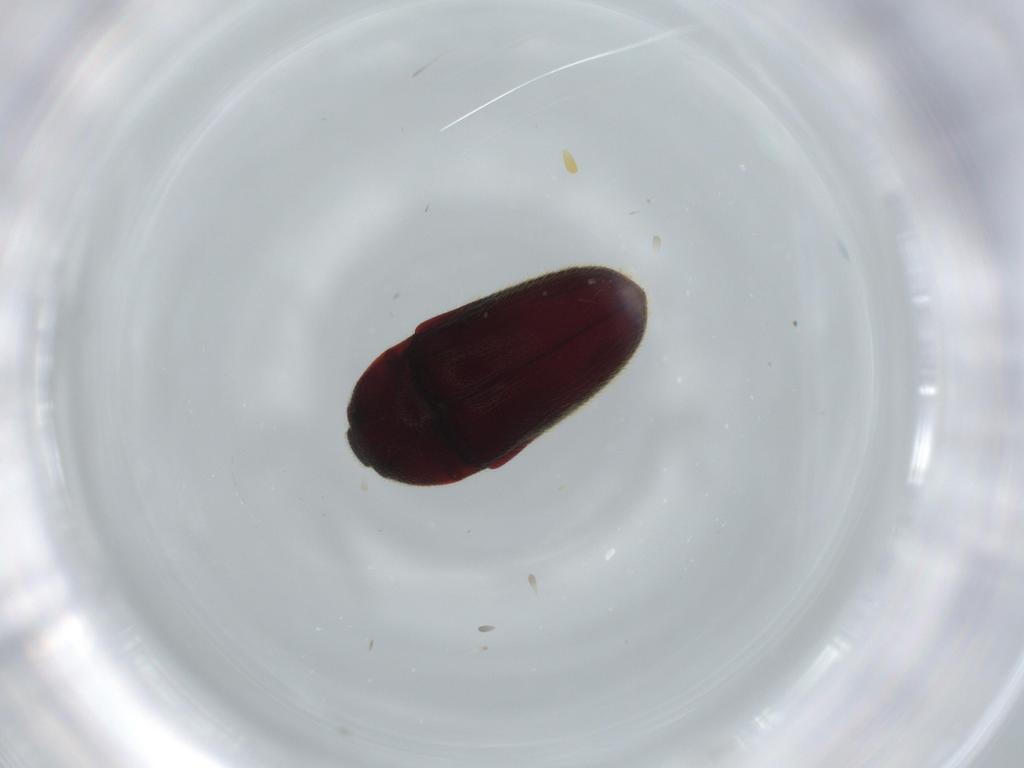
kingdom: Animalia
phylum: Arthropoda
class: Insecta
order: Coleoptera
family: Throscidae
